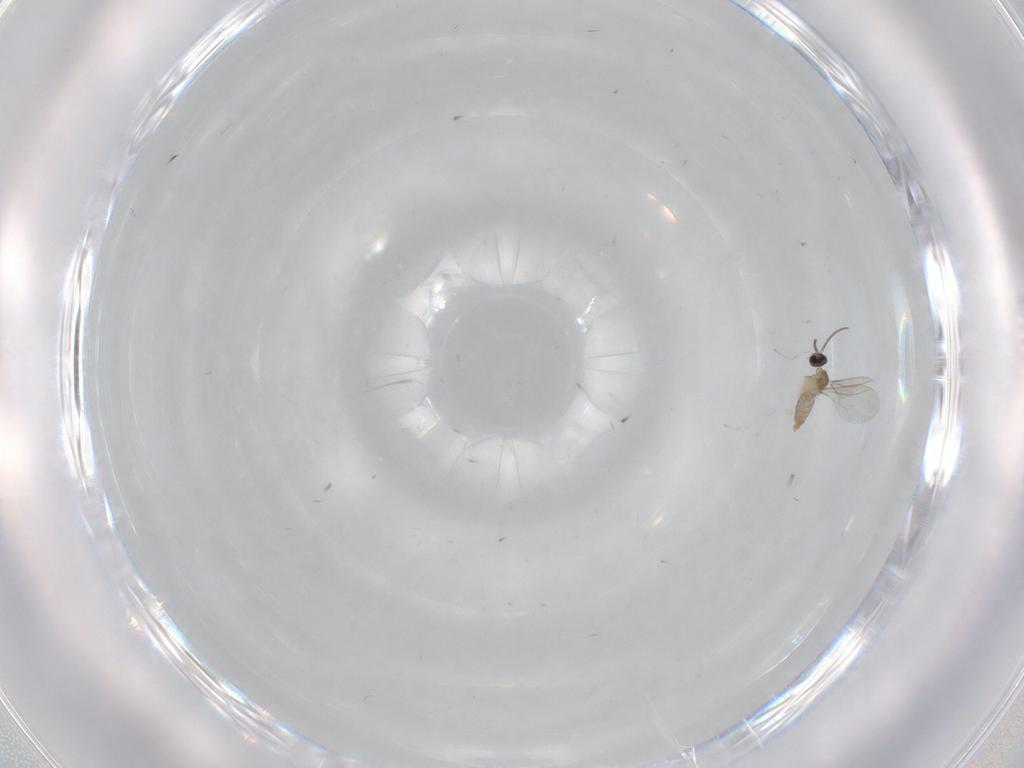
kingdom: Animalia
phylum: Arthropoda
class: Insecta
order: Diptera
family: Cecidomyiidae
